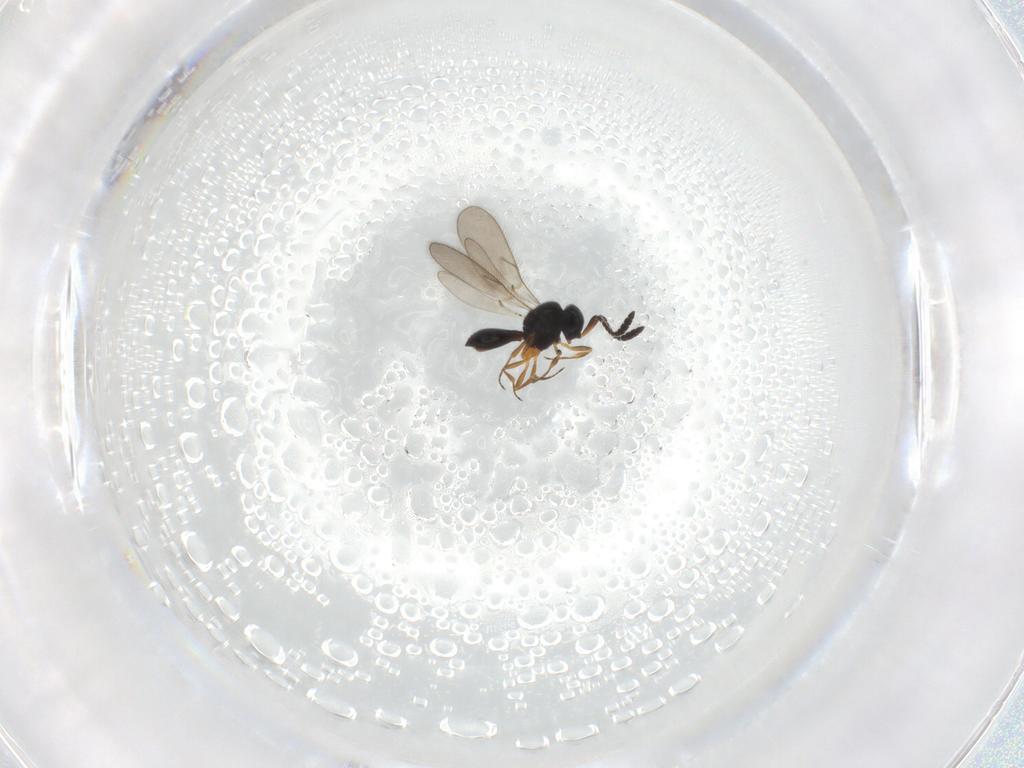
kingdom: Animalia
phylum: Arthropoda
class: Insecta
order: Hymenoptera
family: Scelionidae
